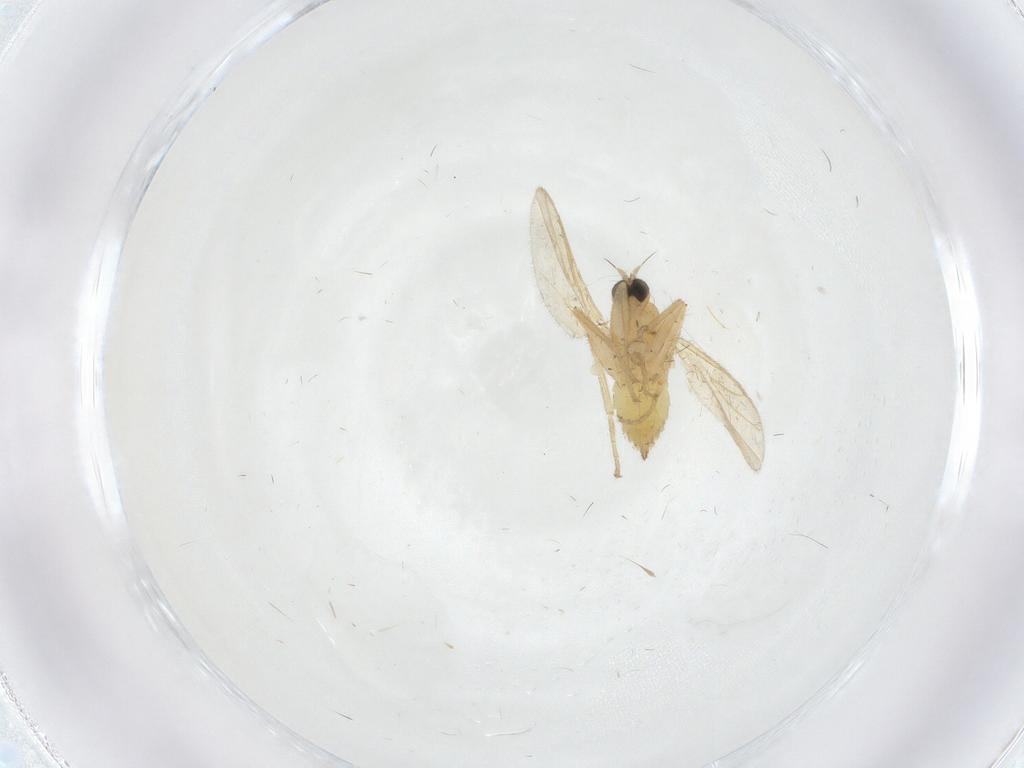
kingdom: Animalia
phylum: Arthropoda
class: Insecta
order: Diptera
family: Hybotidae
